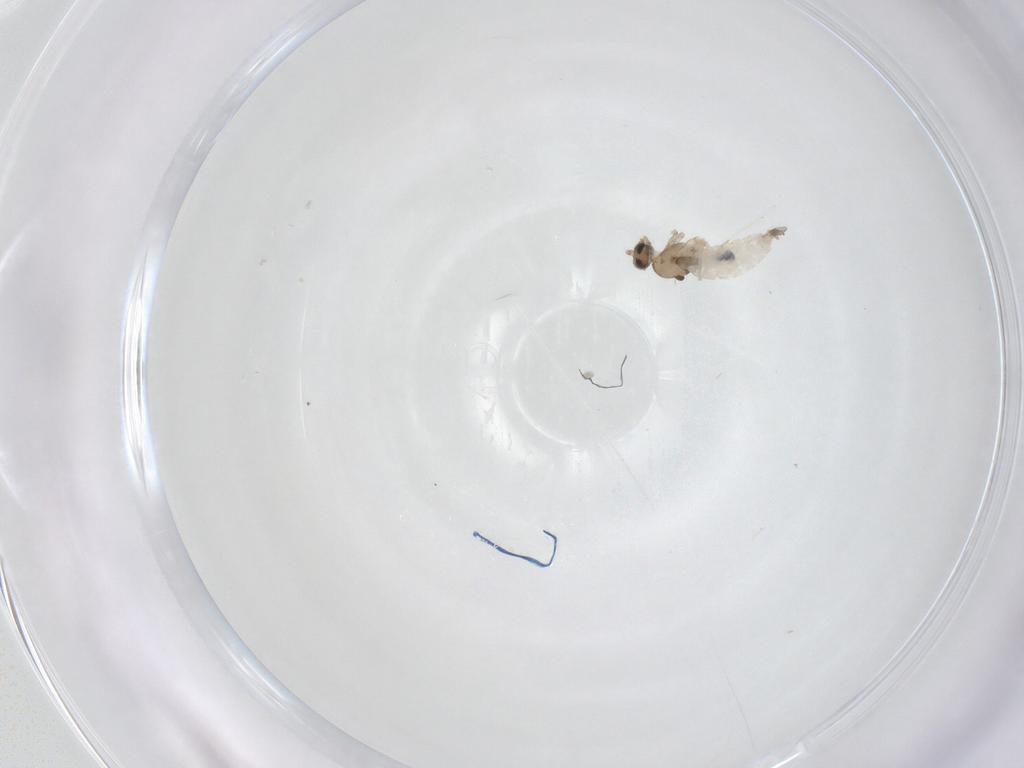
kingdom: Animalia
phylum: Arthropoda
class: Insecta
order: Diptera
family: Cecidomyiidae
